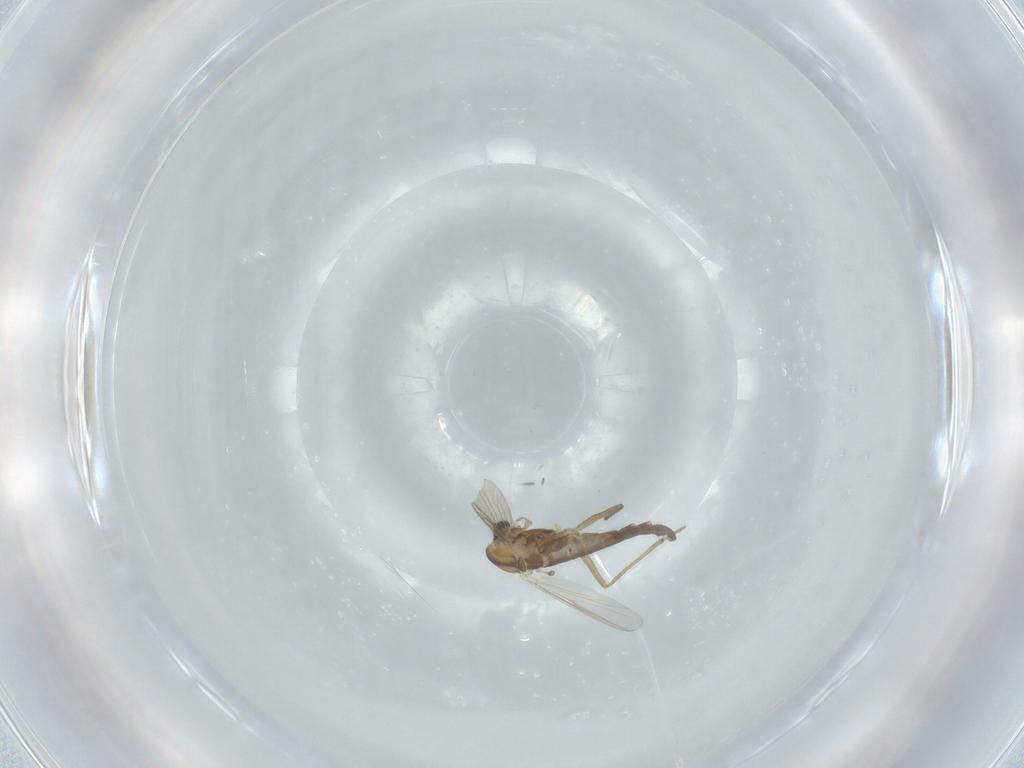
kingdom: Animalia
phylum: Arthropoda
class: Insecta
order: Diptera
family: Chironomidae
